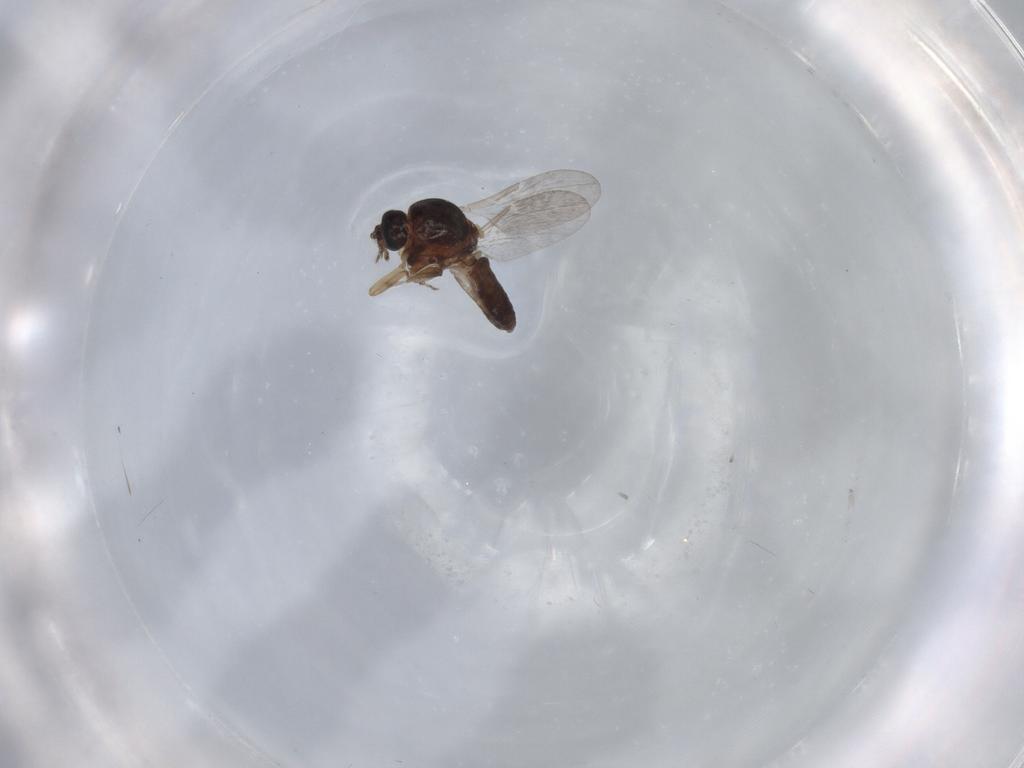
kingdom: Animalia
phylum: Arthropoda
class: Insecta
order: Diptera
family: Ceratopogonidae
